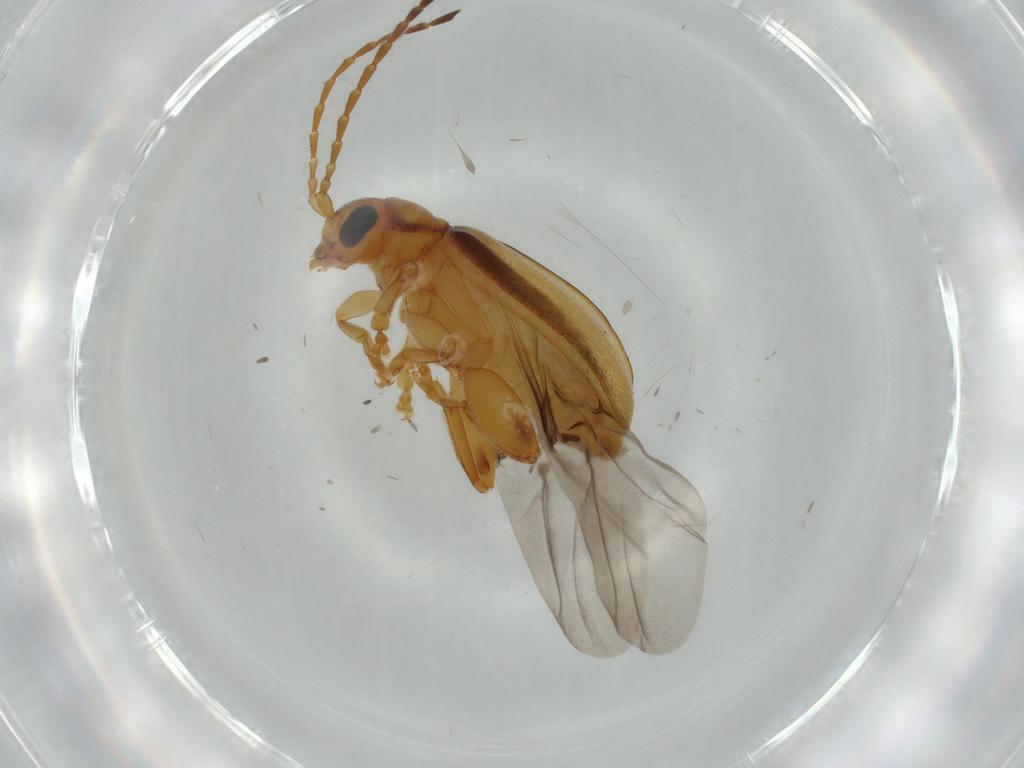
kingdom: Animalia
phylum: Arthropoda
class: Insecta
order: Coleoptera
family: Chrysomelidae
